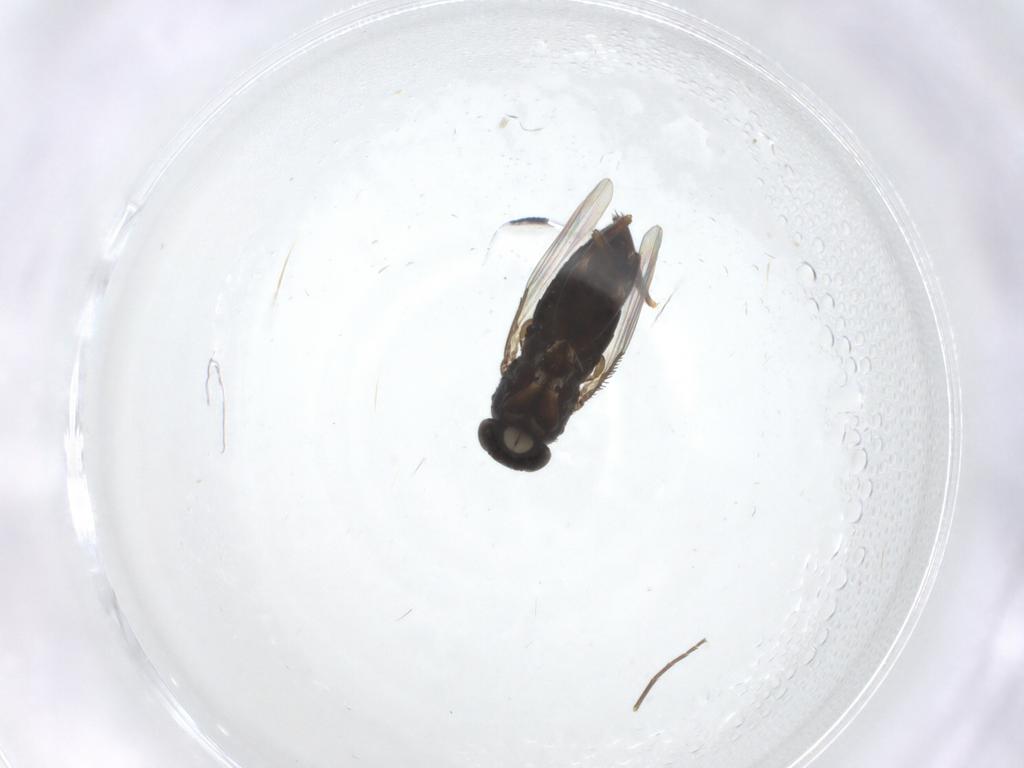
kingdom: Animalia
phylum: Arthropoda
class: Insecta
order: Diptera
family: Phoridae
